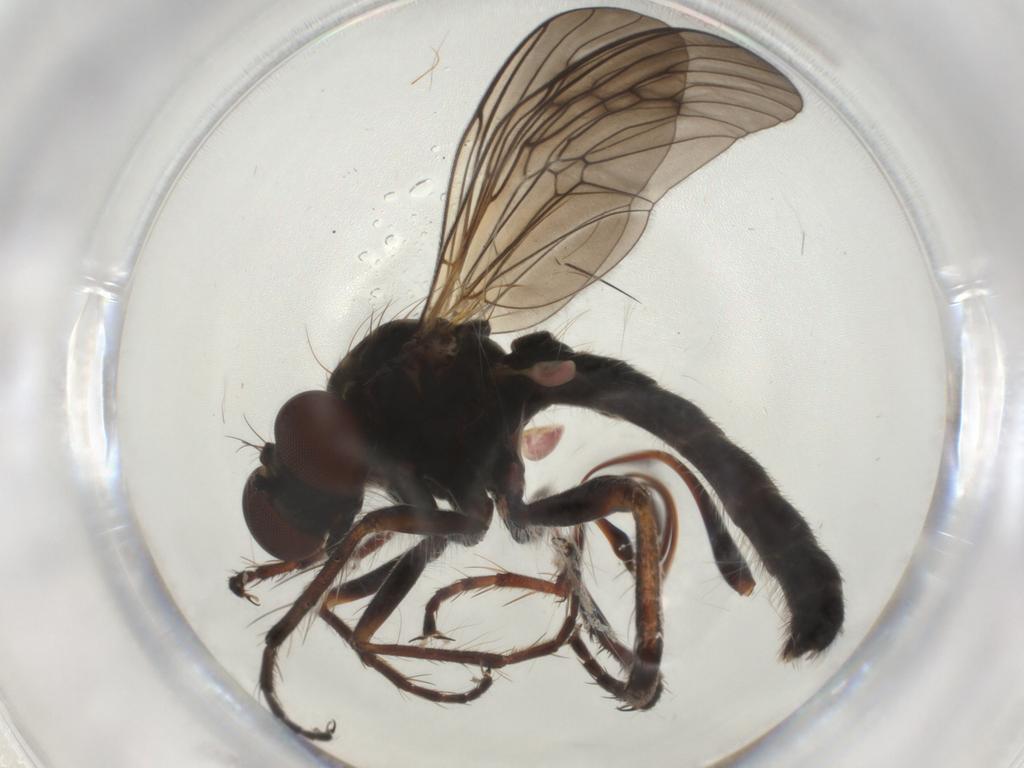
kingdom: Animalia
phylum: Arthropoda
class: Insecta
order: Diptera
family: Asilidae
